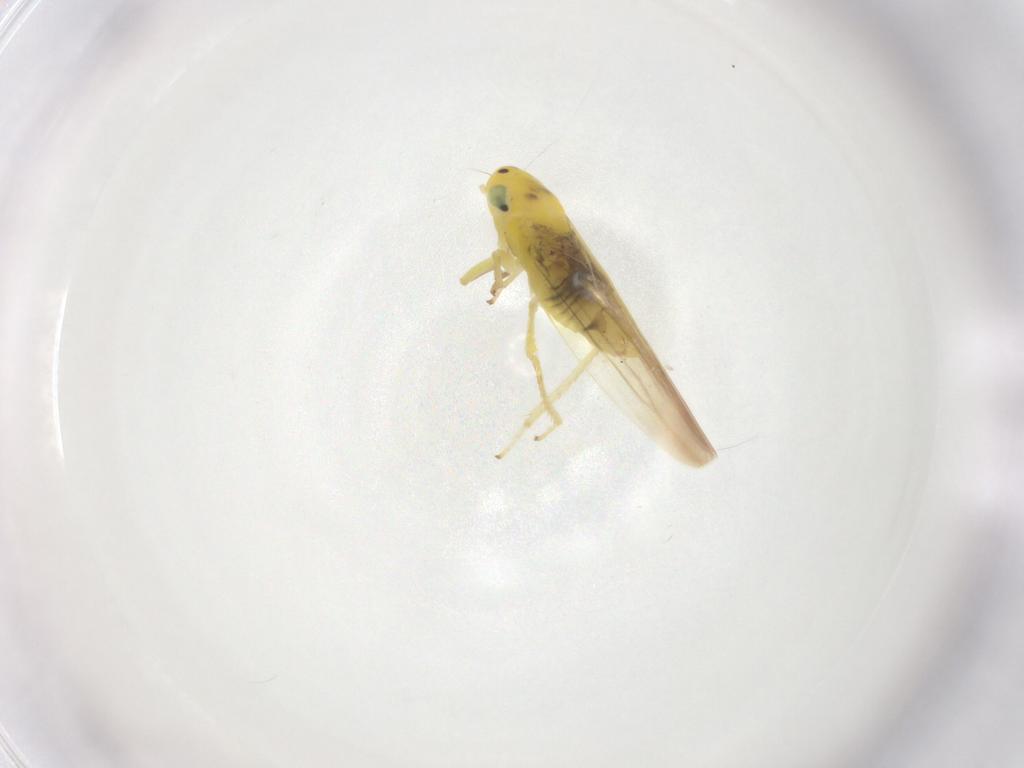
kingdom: Animalia
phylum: Arthropoda
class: Insecta
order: Hemiptera
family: Cicadellidae
